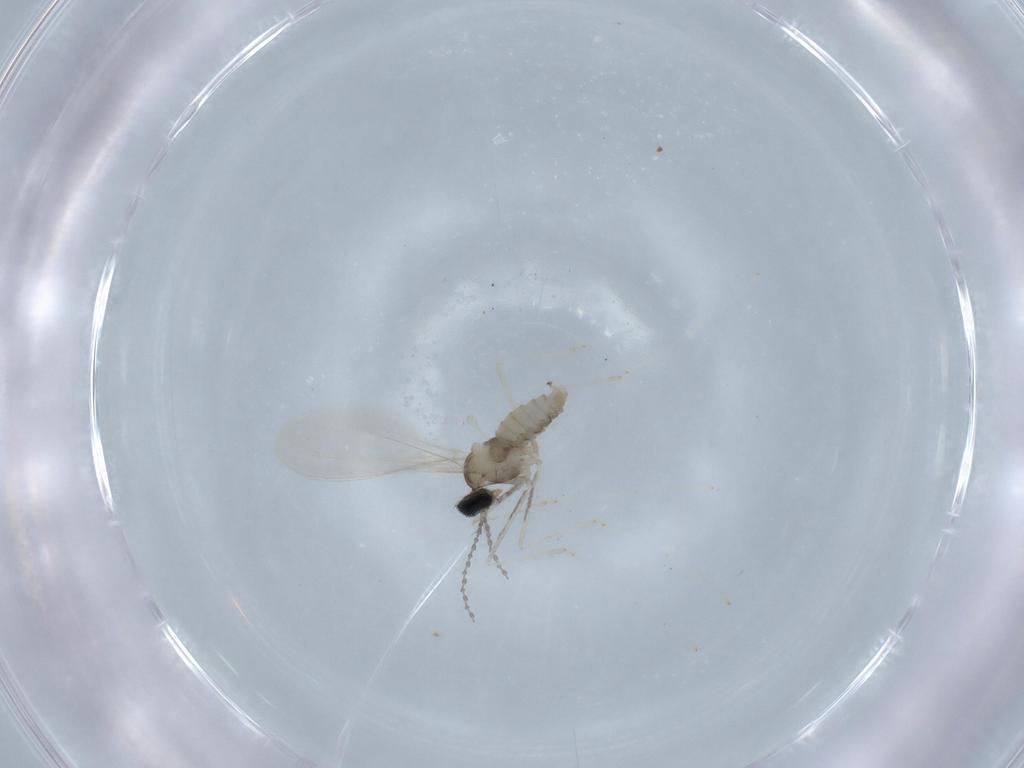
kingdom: Animalia
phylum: Arthropoda
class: Insecta
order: Diptera
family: Cecidomyiidae
